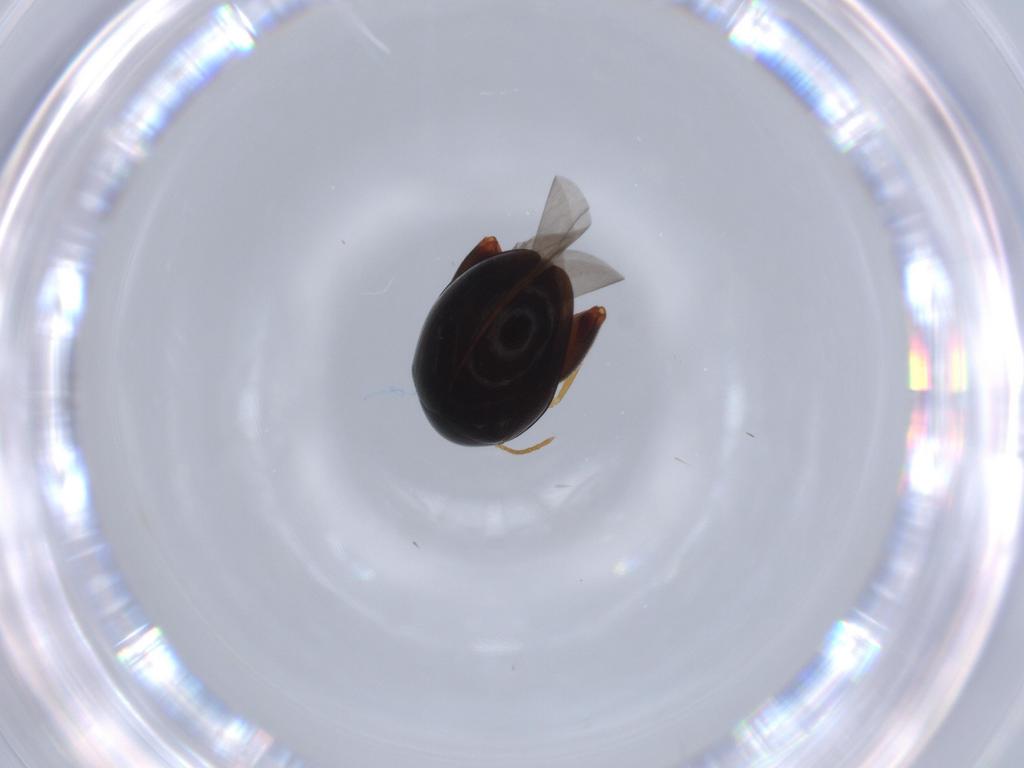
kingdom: Animalia
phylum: Arthropoda
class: Insecta
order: Coleoptera
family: Chrysomelidae
